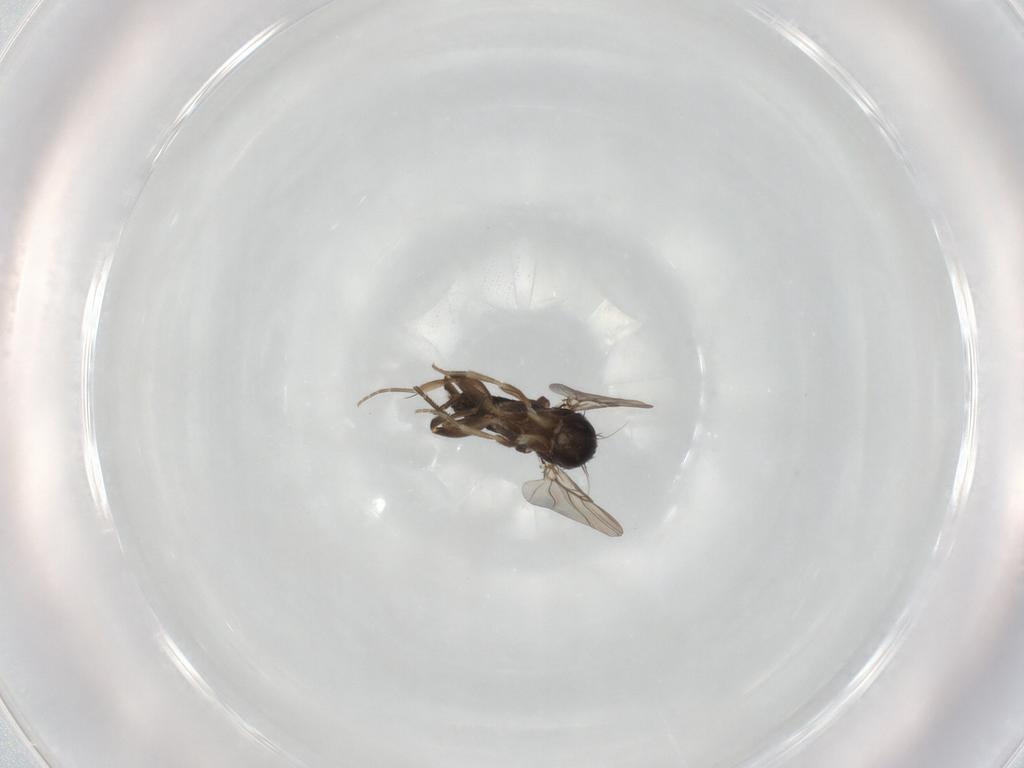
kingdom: Animalia
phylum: Arthropoda
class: Insecta
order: Diptera
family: Phoridae
